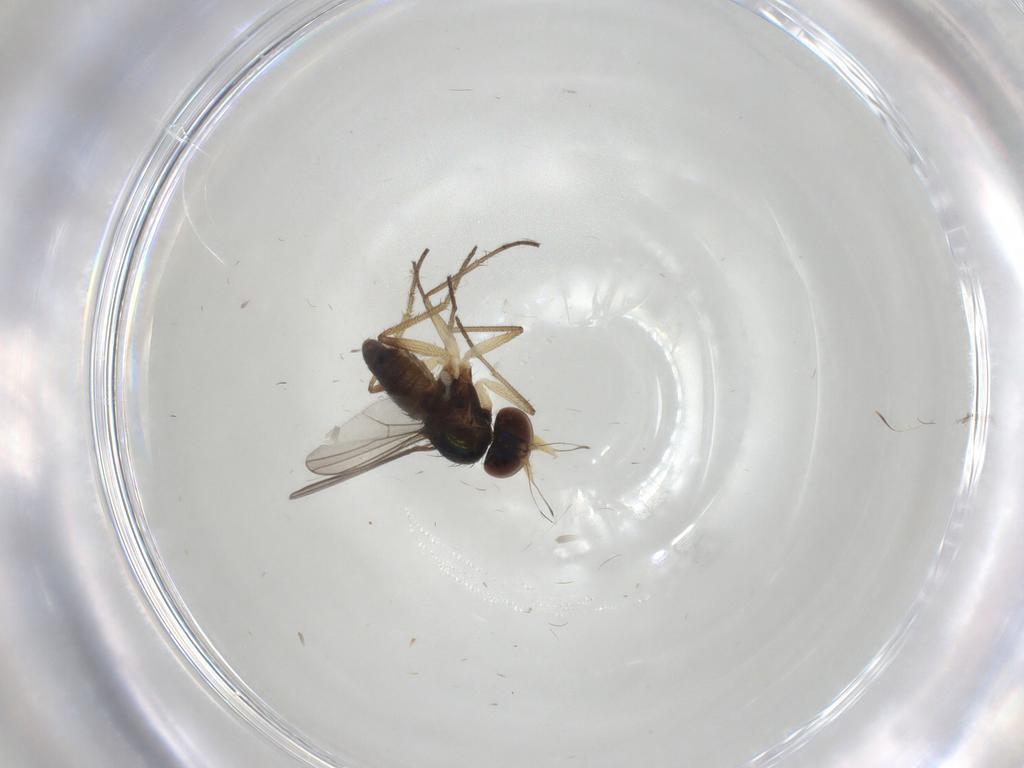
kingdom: Animalia
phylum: Arthropoda
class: Insecta
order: Diptera
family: Dolichopodidae
